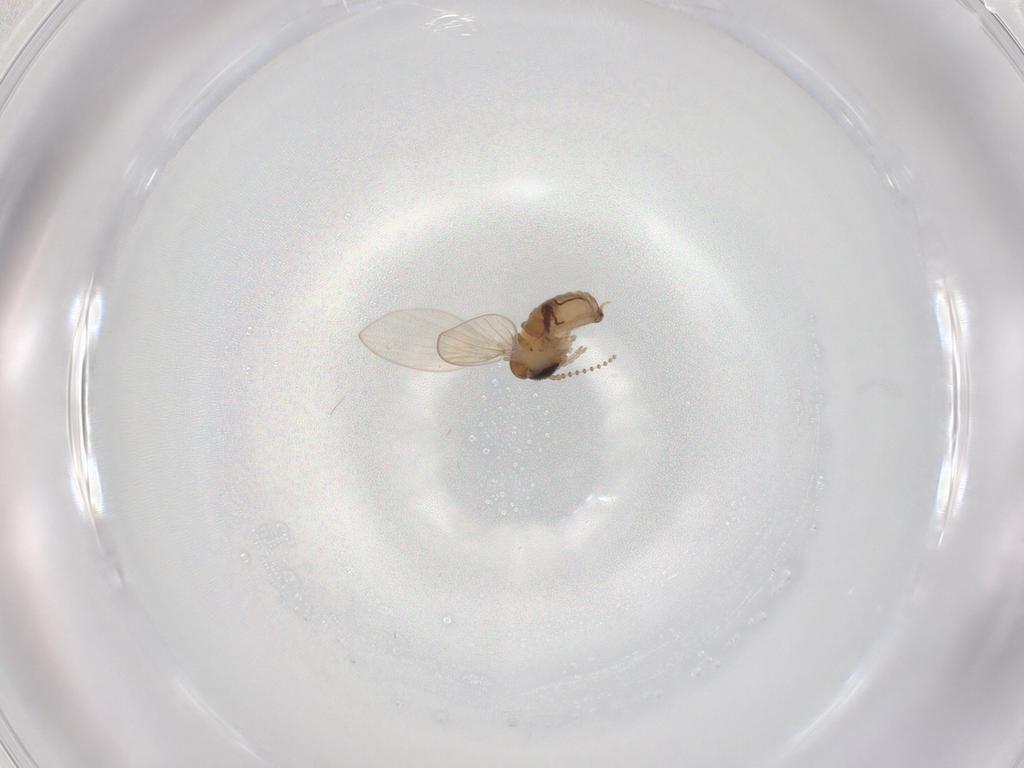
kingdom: Animalia
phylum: Arthropoda
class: Insecta
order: Diptera
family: Psychodidae
